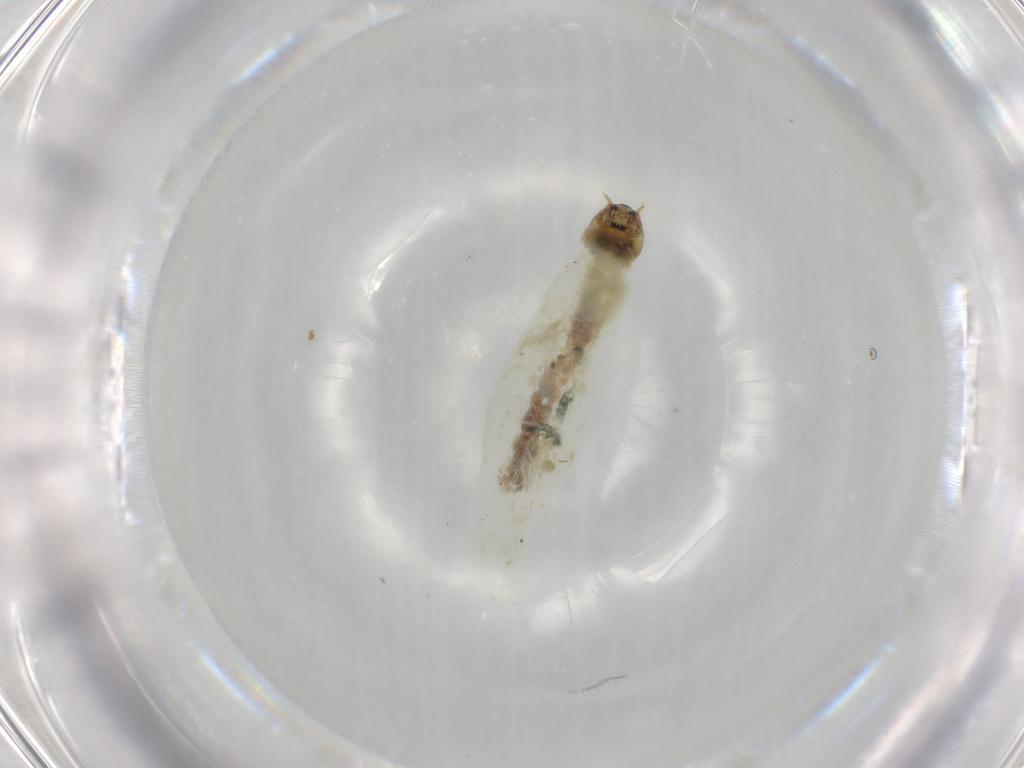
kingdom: Animalia
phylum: Arthropoda
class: Insecta
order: Diptera
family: Chironomidae
